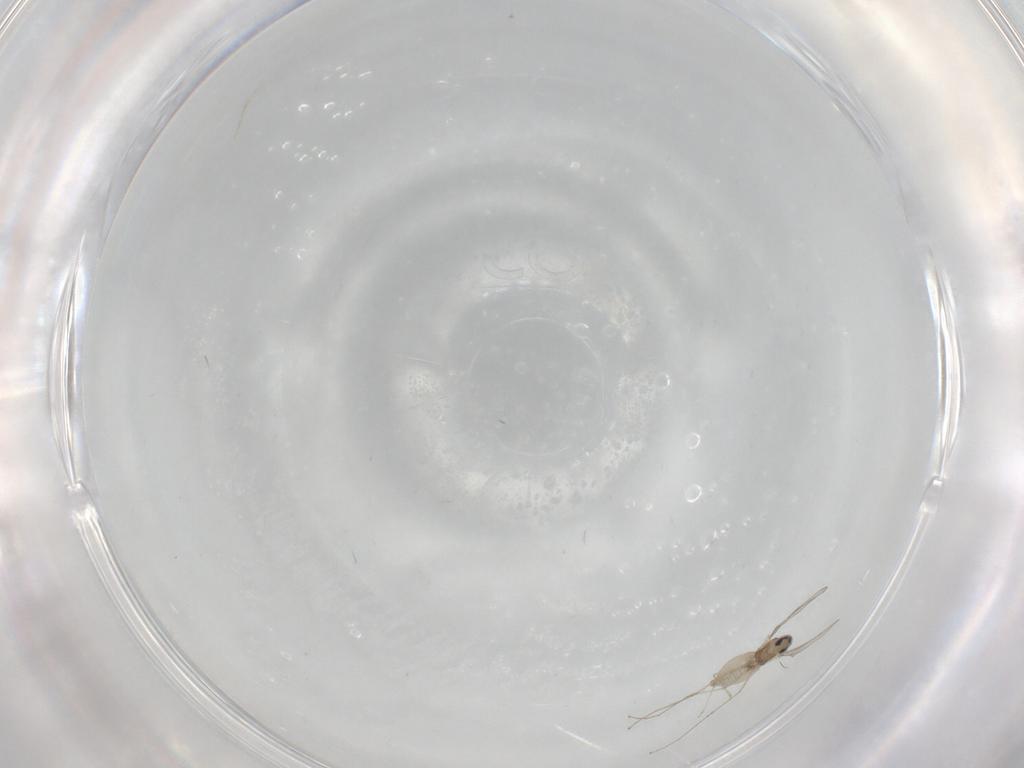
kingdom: Animalia
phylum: Arthropoda
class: Insecta
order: Diptera
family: Cecidomyiidae
